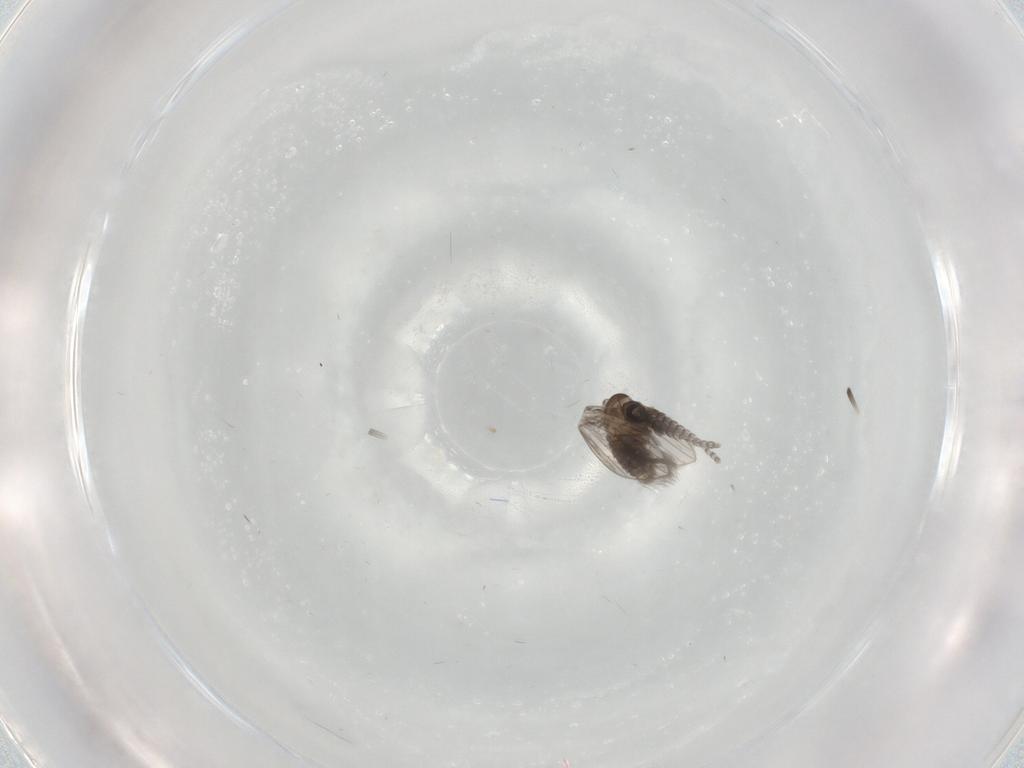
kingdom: Animalia
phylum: Arthropoda
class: Insecta
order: Diptera
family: Psychodidae
